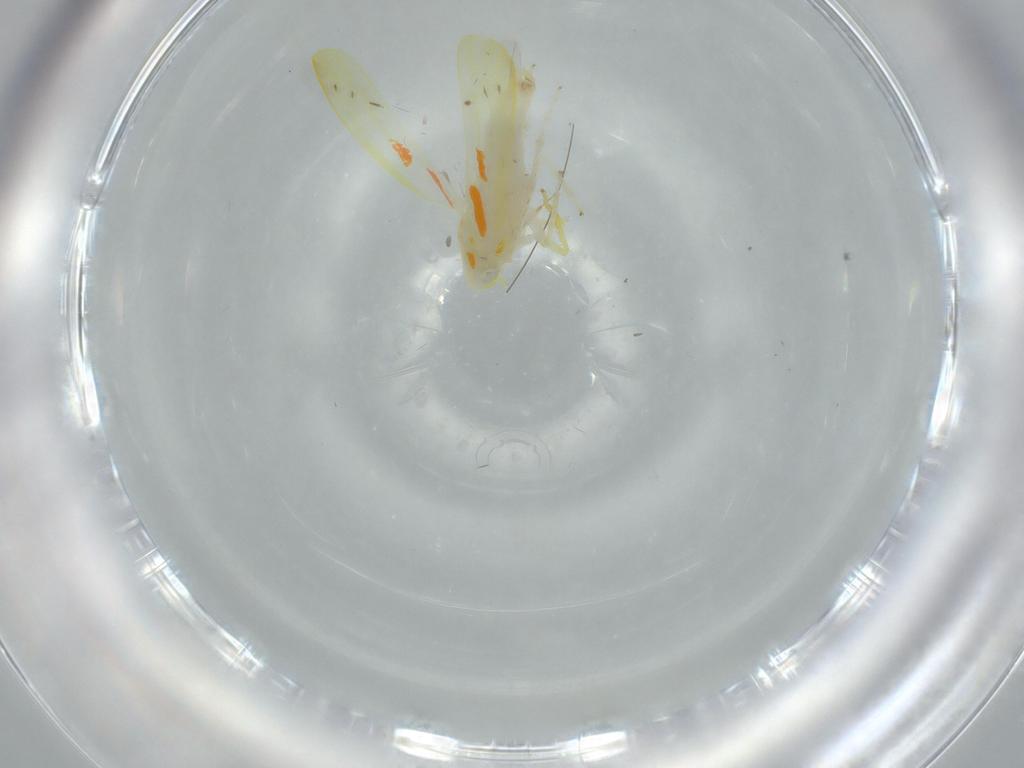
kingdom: Animalia
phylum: Arthropoda
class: Insecta
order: Hemiptera
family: Cicadellidae
